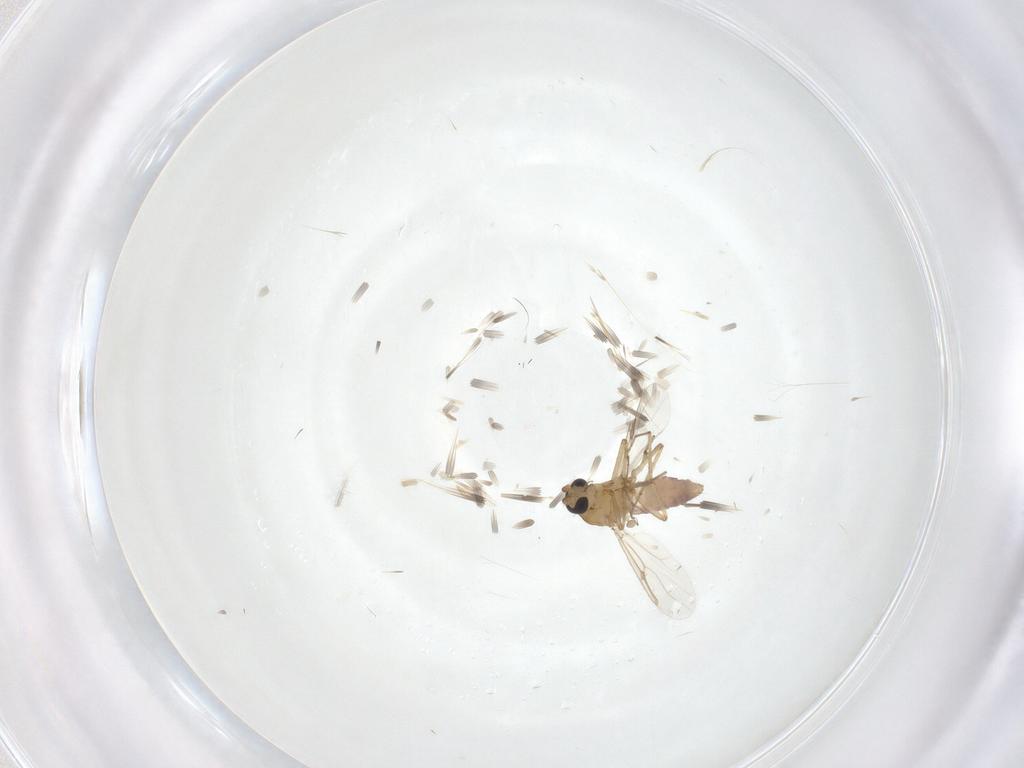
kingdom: Animalia
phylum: Arthropoda
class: Insecta
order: Diptera
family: Ceratopogonidae
